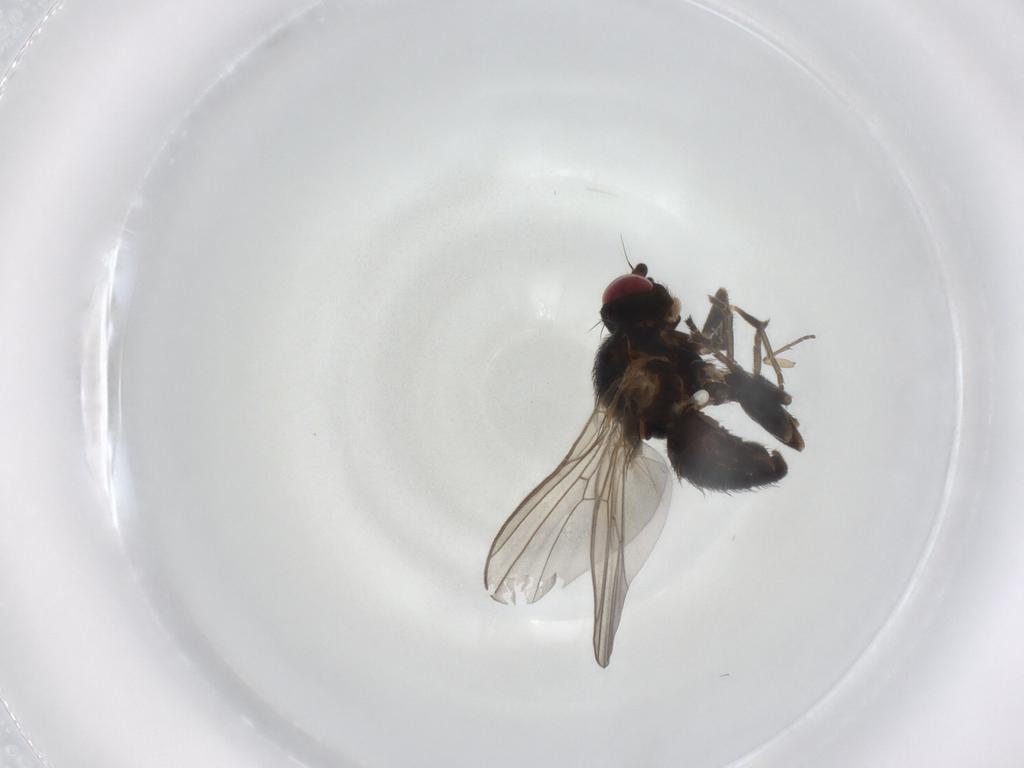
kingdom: Animalia
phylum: Arthropoda
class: Insecta
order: Diptera
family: Agromyzidae
